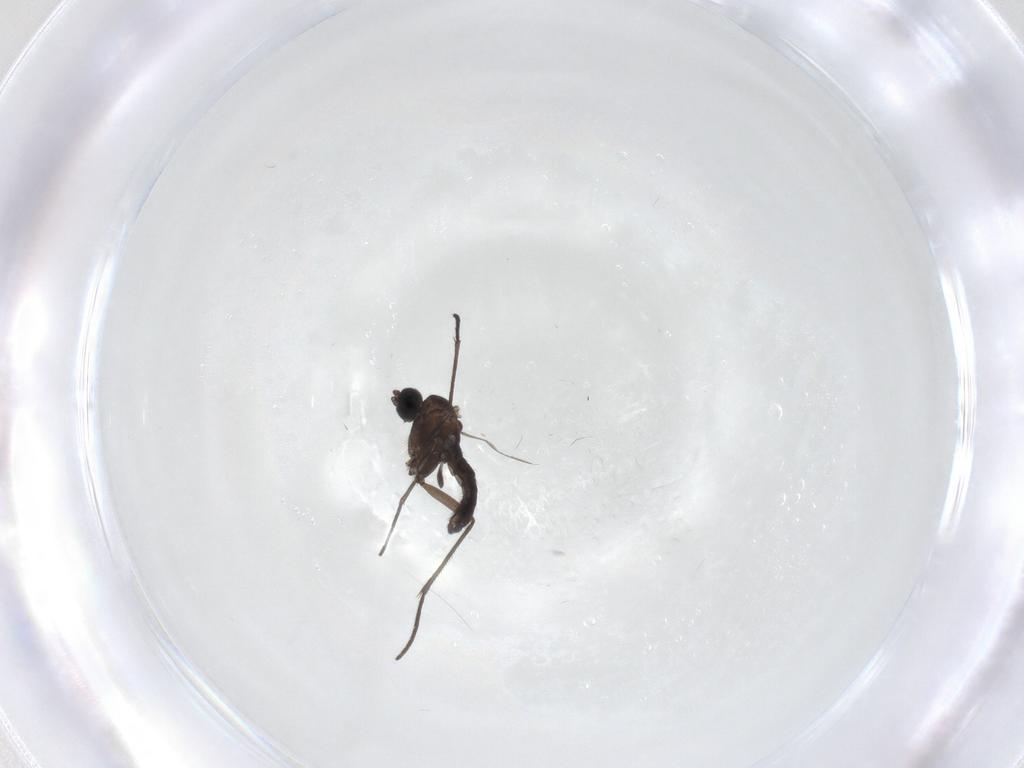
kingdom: Animalia
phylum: Arthropoda
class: Insecta
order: Diptera
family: Sciaridae
